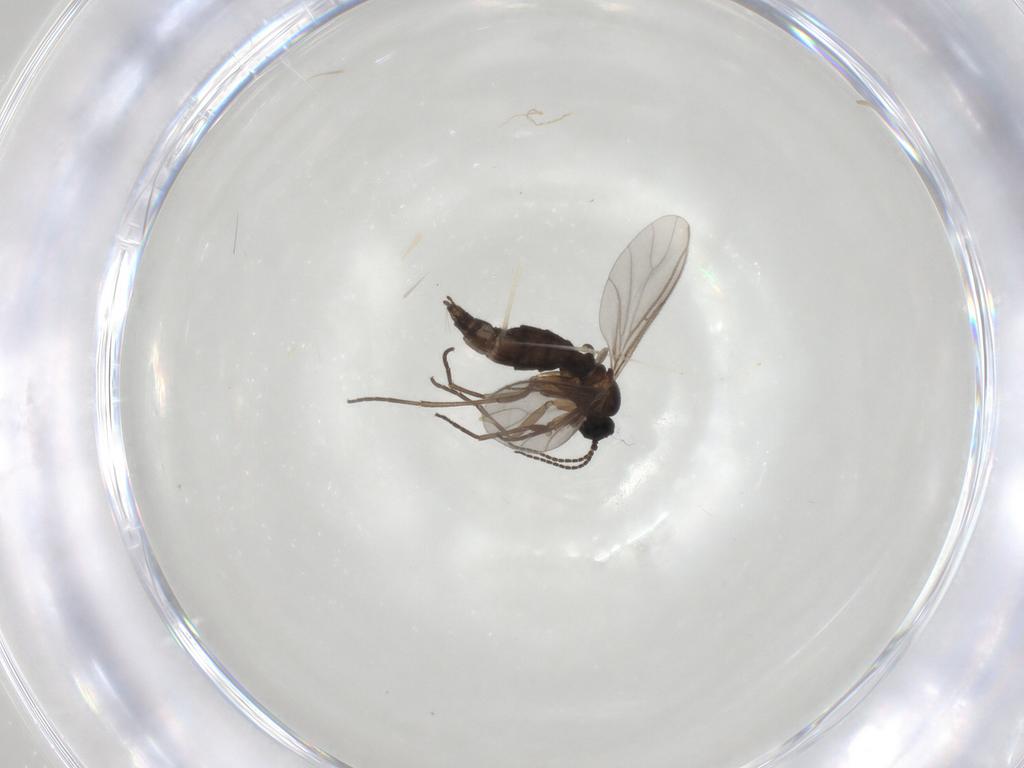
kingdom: Animalia
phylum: Arthropoda
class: Insecta
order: Diptera
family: Sciaridae
